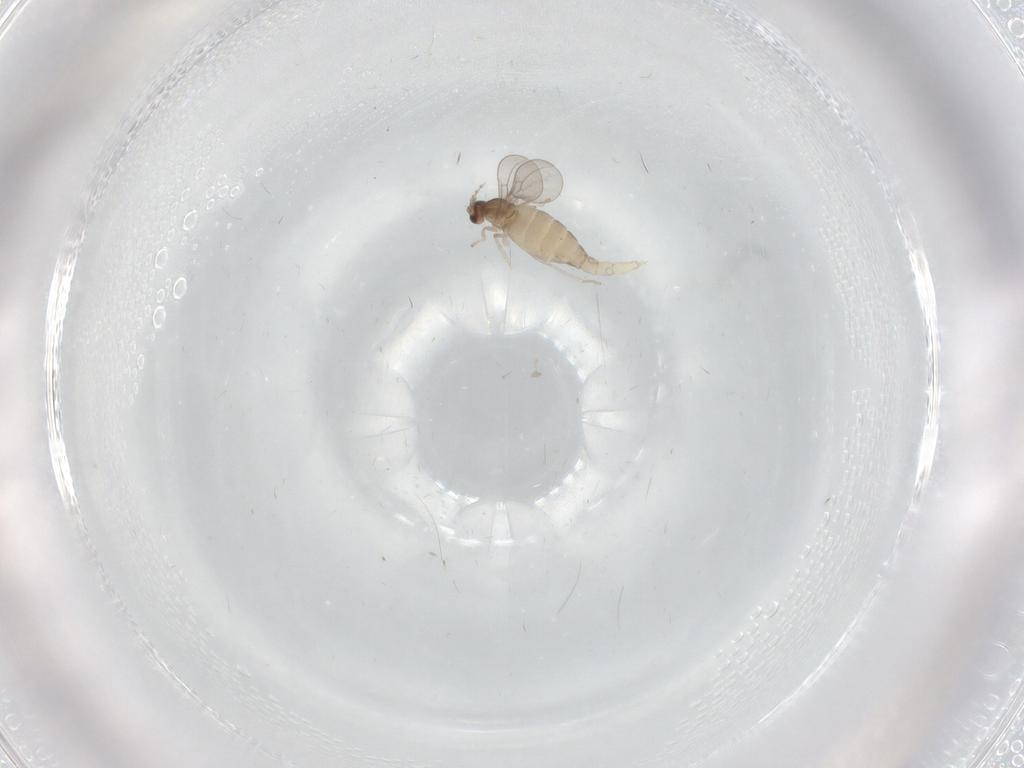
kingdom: Animalia
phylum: Arthropoda
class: Insecta
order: Diptera
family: Cecidomyiidae
